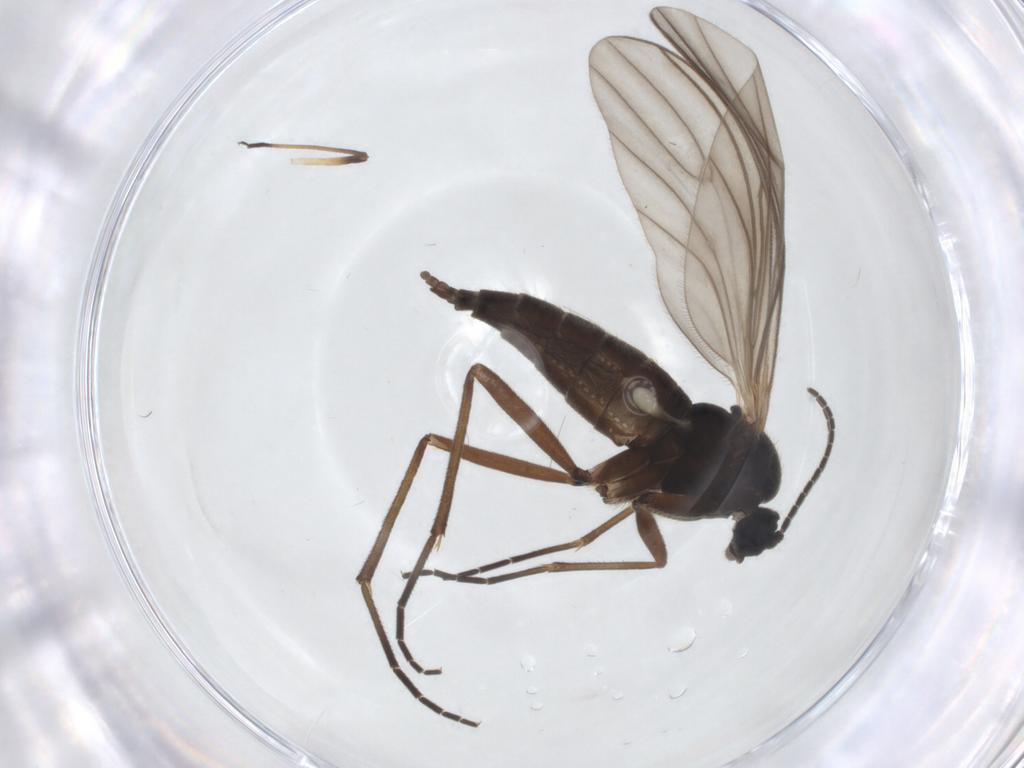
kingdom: Animalia
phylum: Arthropoda
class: Insecta
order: Diptera
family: Sciaridae
